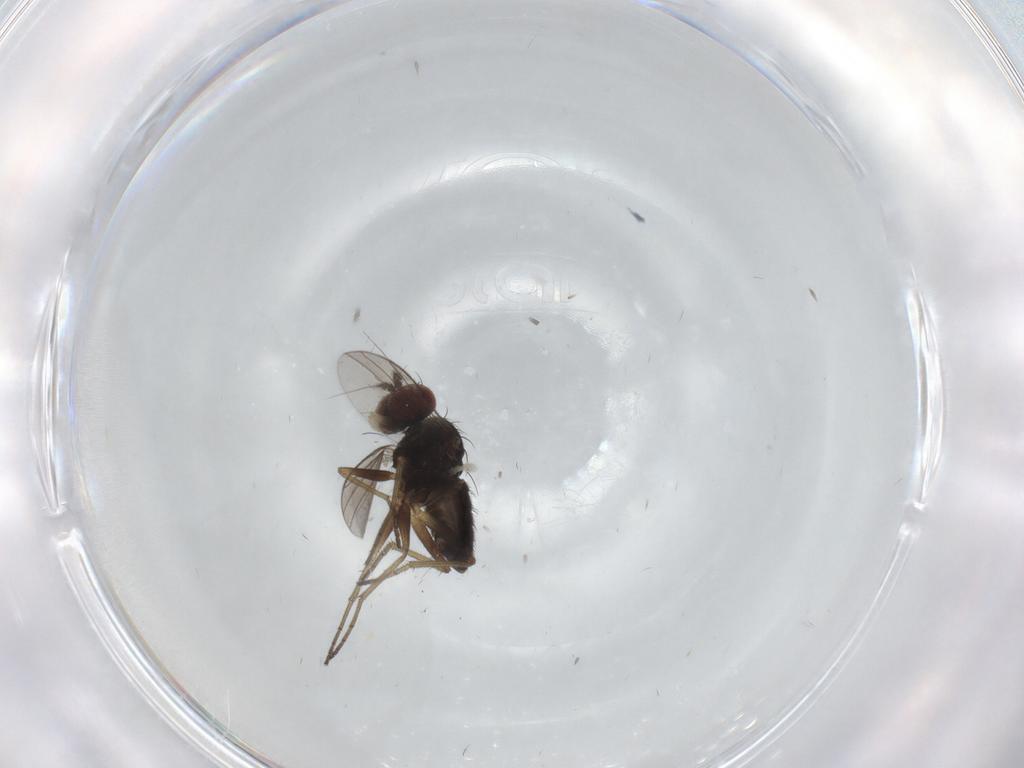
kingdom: Animalia
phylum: Arthropoda
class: Insecta
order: Diptera
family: Dolichopodidae
